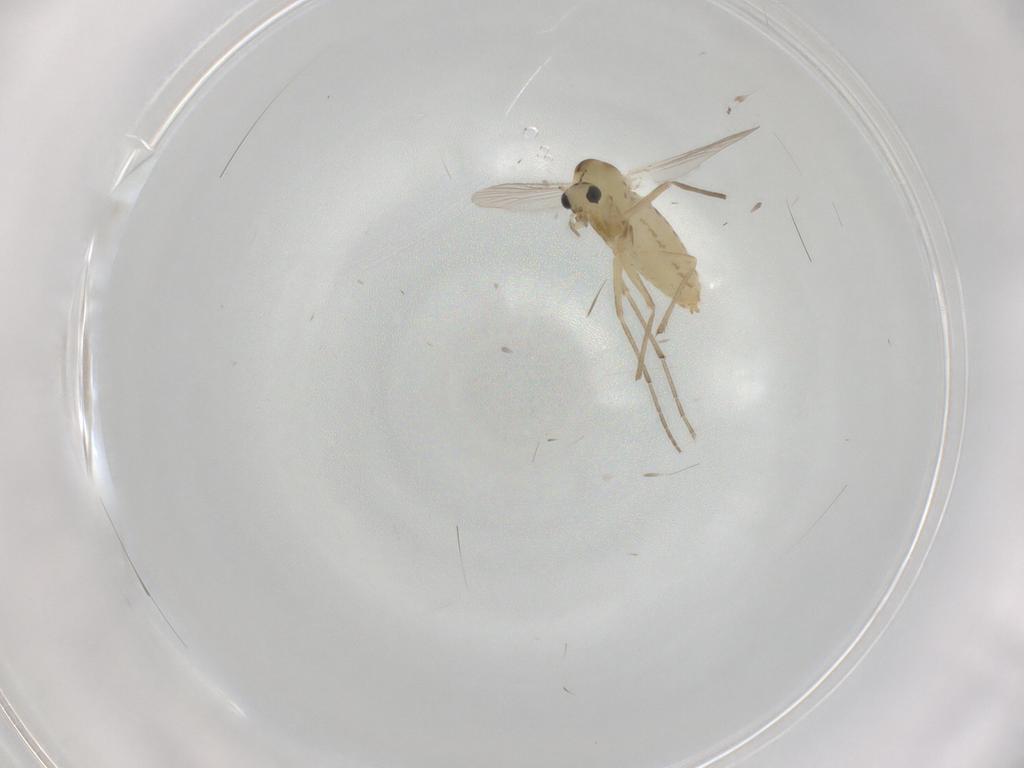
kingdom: Animalia
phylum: Arthropoda
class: Insecta
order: Diptera
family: Chironomidae
